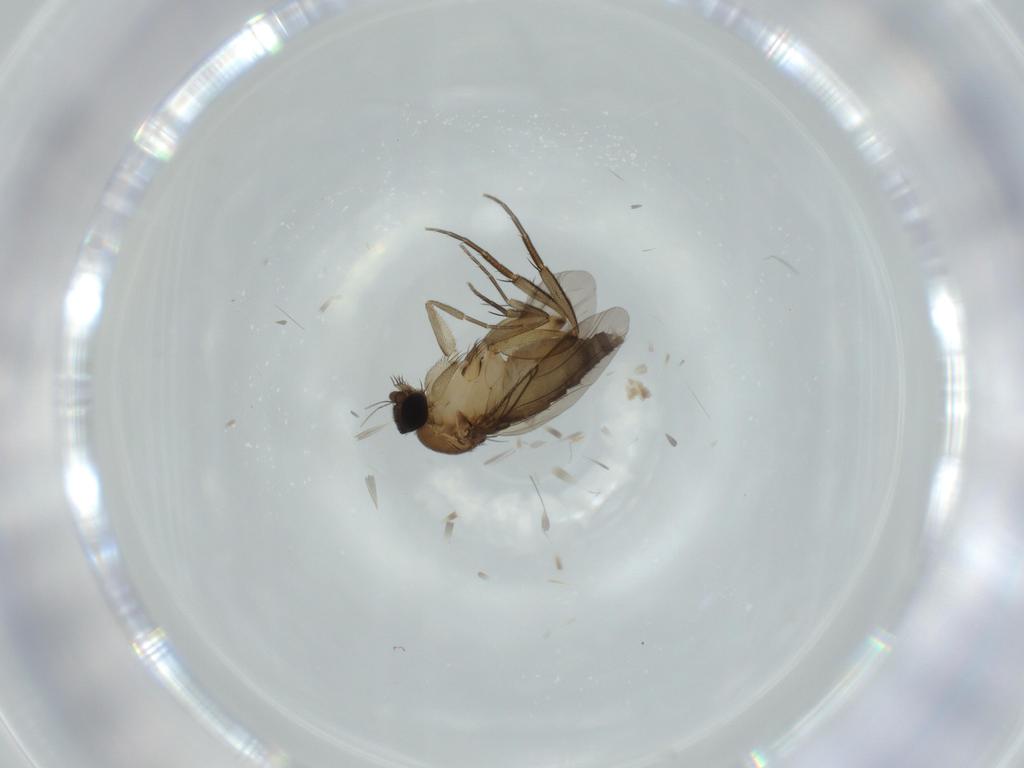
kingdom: Animalia
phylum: Arthropoda
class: Insecta
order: Diptera
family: Phoridae
